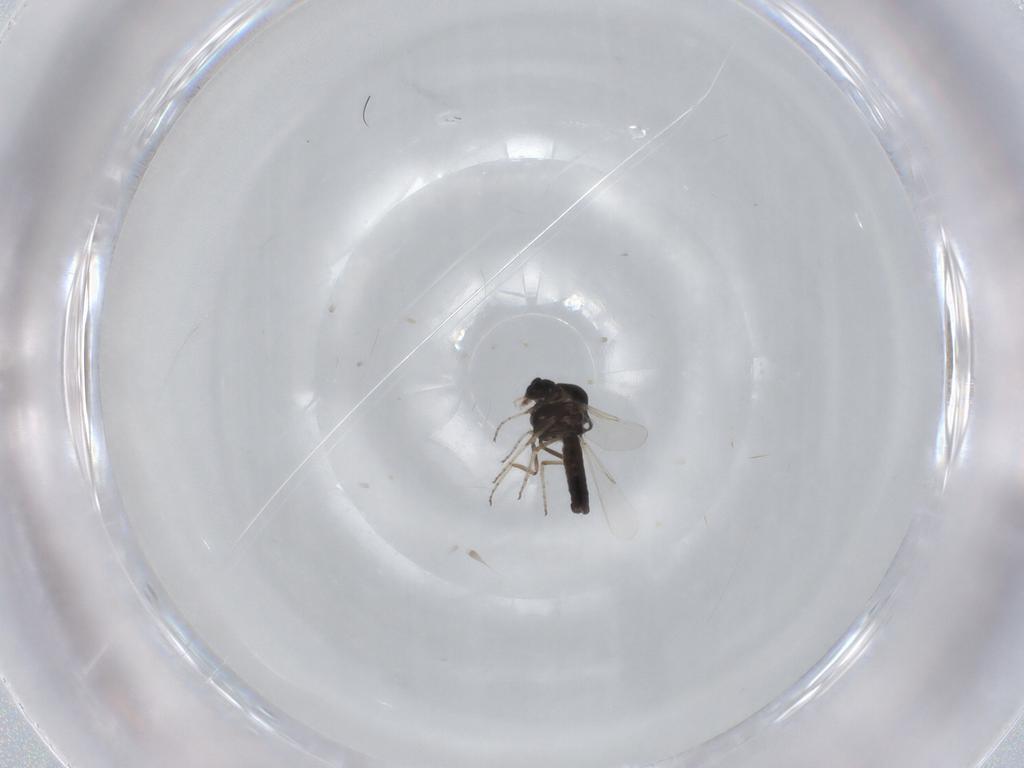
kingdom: Animalia
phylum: Arthropoda
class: Insecta
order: Diptera
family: Ceratopogonidae
